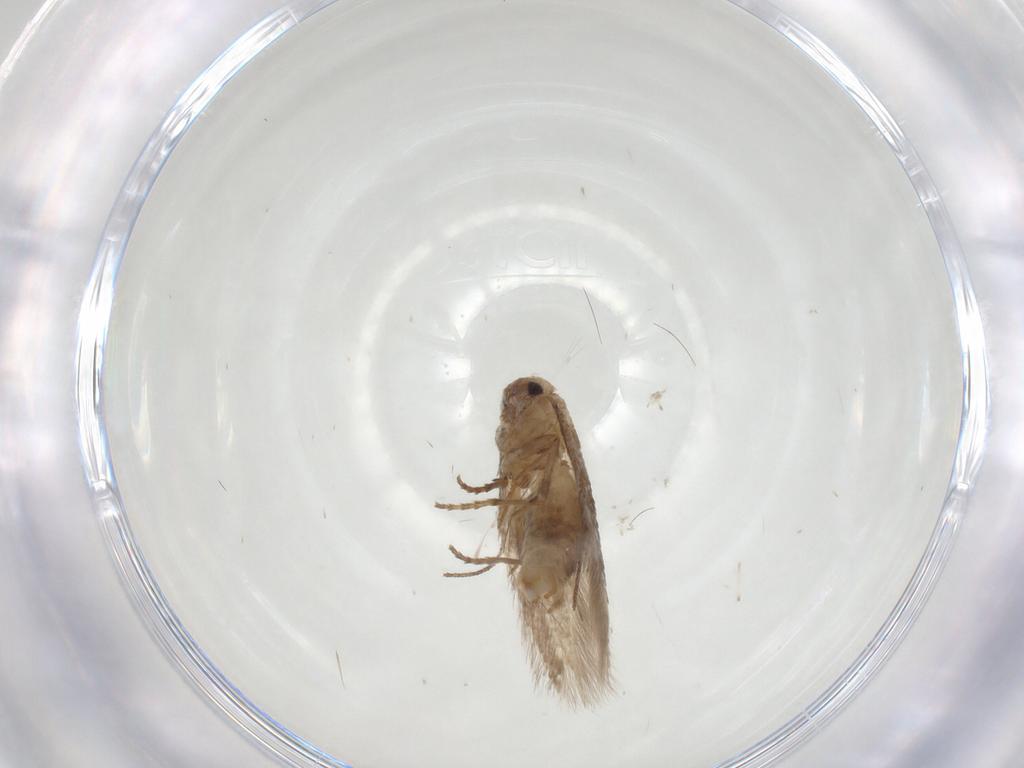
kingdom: Animalia
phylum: Arthropoda
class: Insecta
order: Lepidoptera
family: Bucculatricidae
